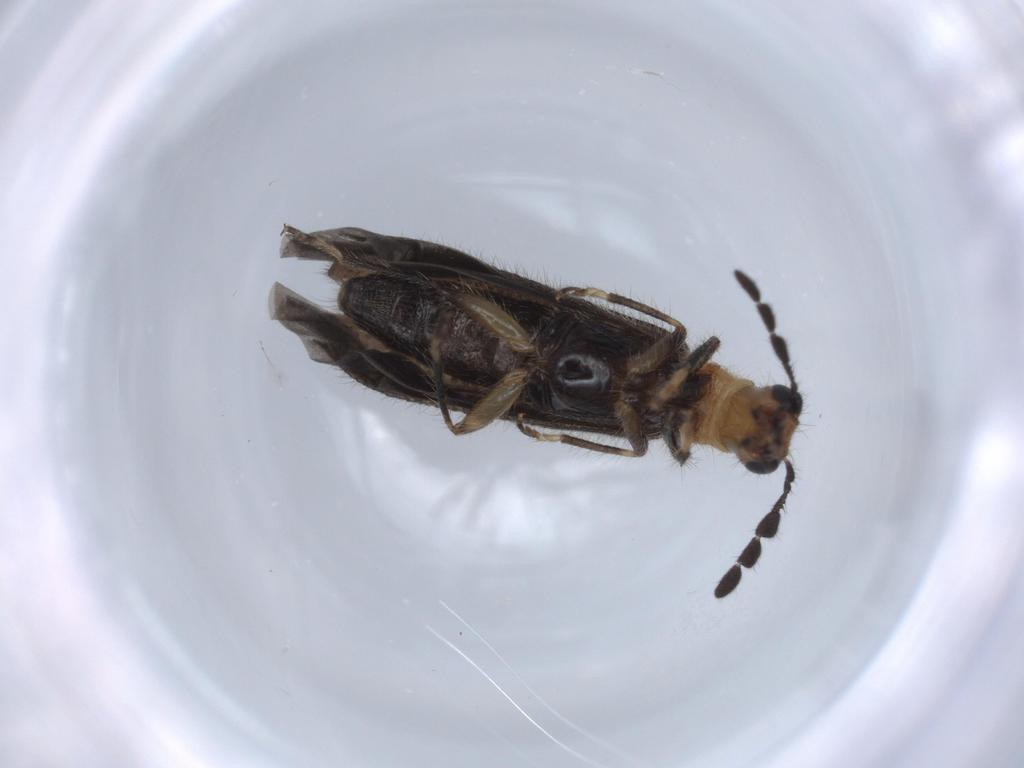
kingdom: Animalia
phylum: Arthropoda
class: Insecta
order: Coleoptera
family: Cleridae
